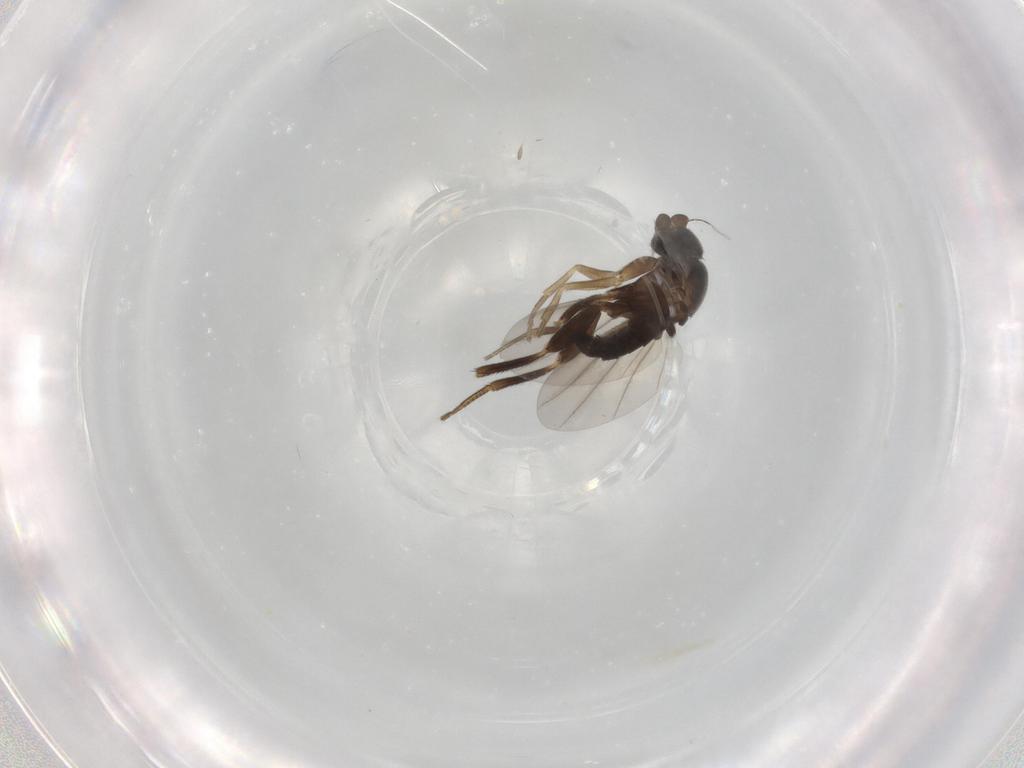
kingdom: Animalia
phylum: Arthropoda
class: Insecta
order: Diptera
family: Phoridae
